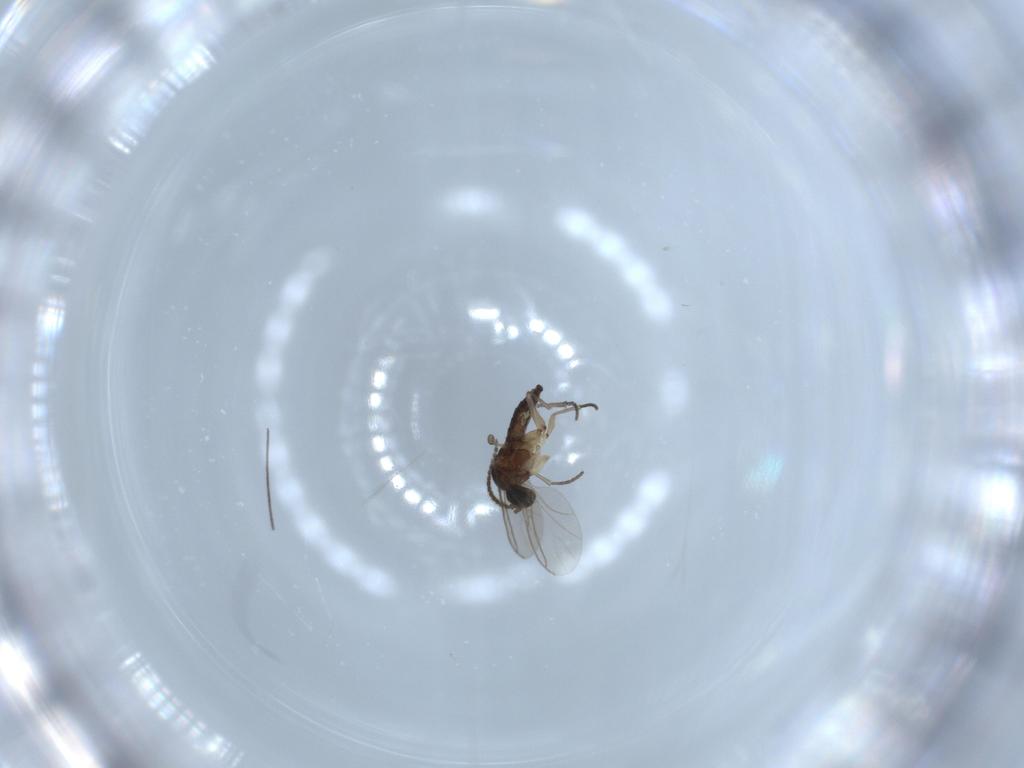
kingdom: Animalia
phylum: Arthropoda
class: Insecta
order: Diptera
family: Sciaridae
